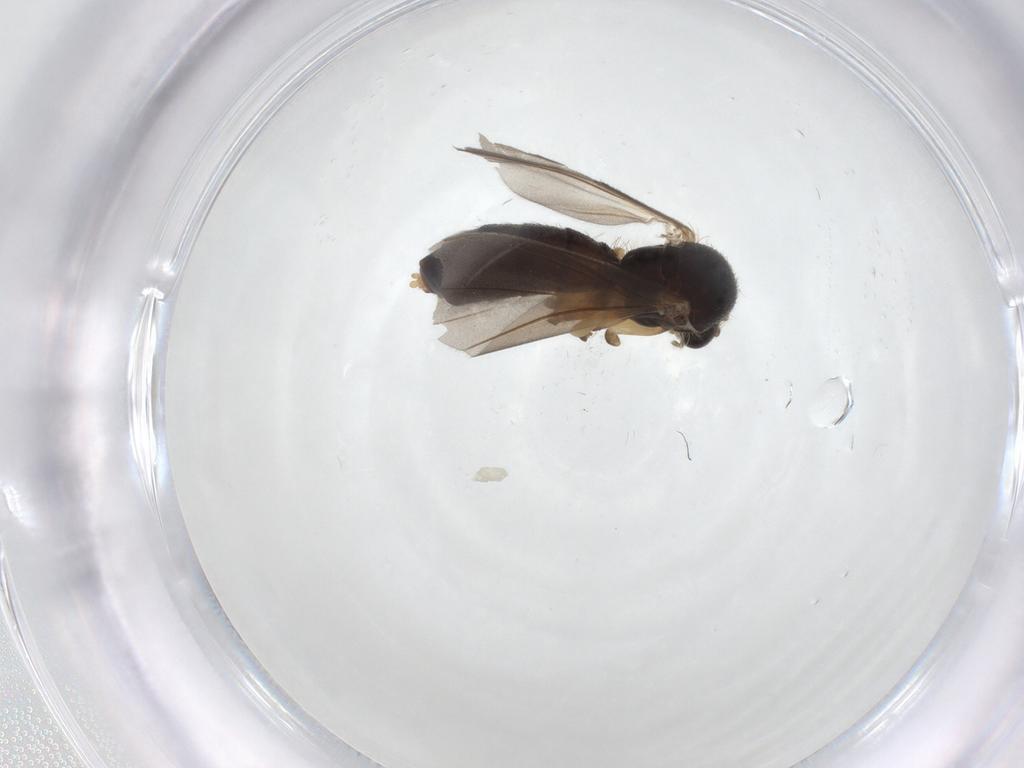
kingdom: Animalia
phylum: Arthropoda
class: Insecta
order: Diptera
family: Mycetophilidae
